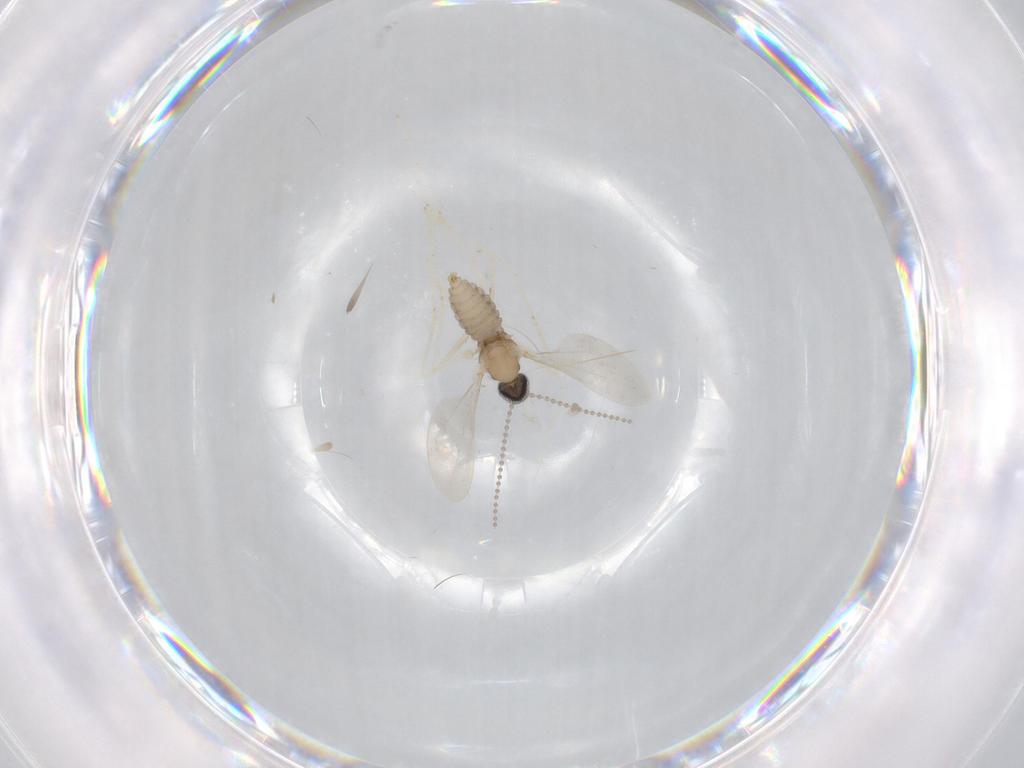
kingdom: Animalia
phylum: Arthropoda
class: Insecta
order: Diptera
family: Cecidomyiidae
